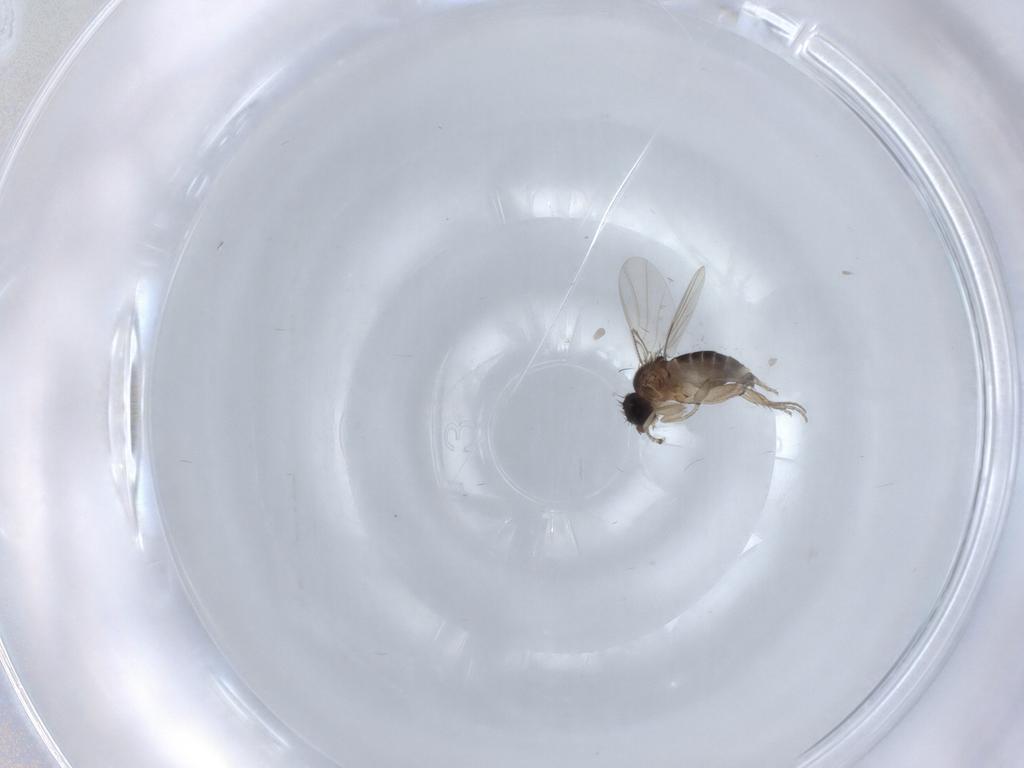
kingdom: Animalia
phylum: Arthropoda
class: Insecta
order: Diptera
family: Phoridae
